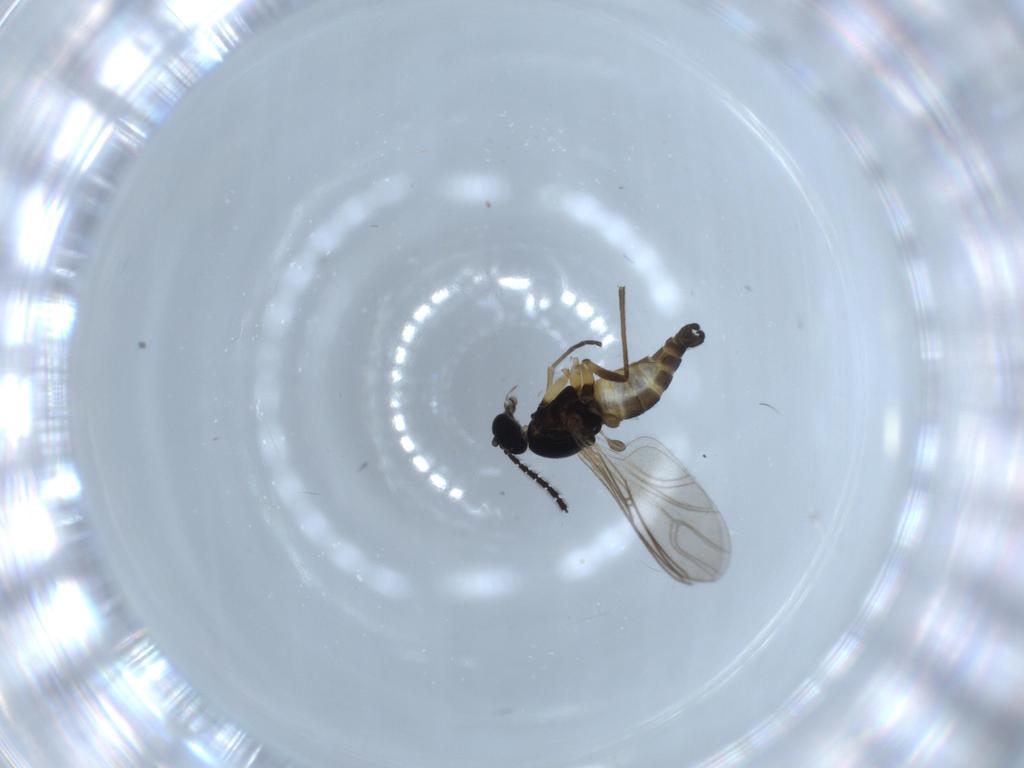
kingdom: Animalia
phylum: Arthropoda
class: Insecta
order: Diptera
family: Sciaridae
